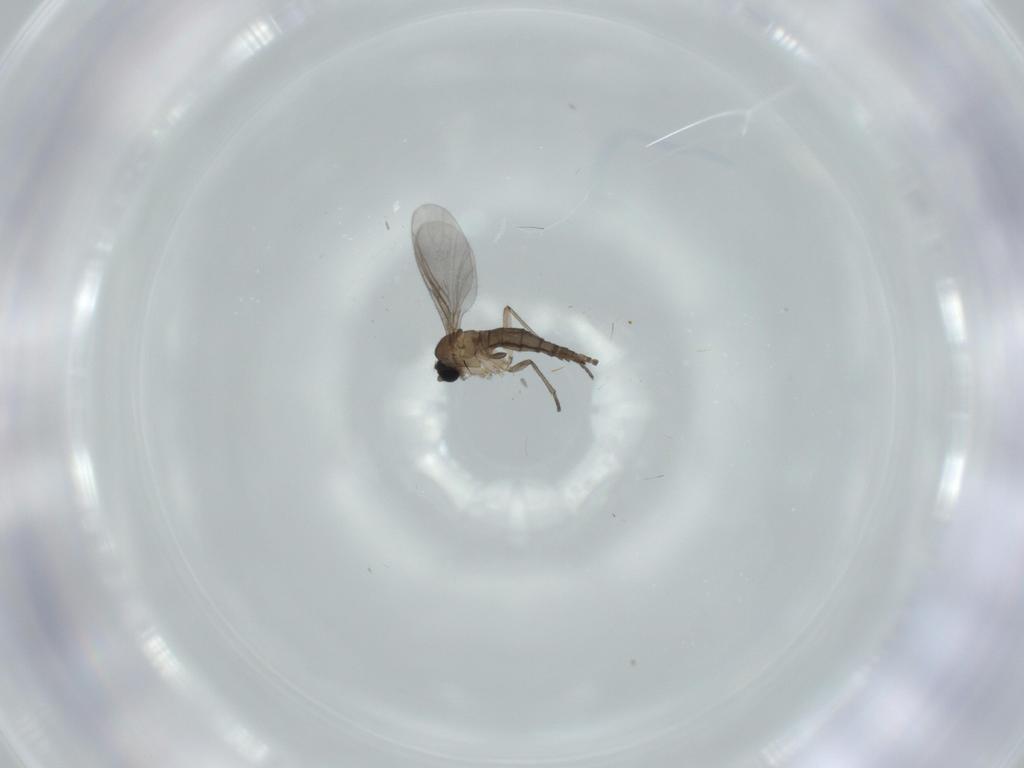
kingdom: Animalia
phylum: Arthropoda
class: Insecta
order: Diptera
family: Sciaridae
